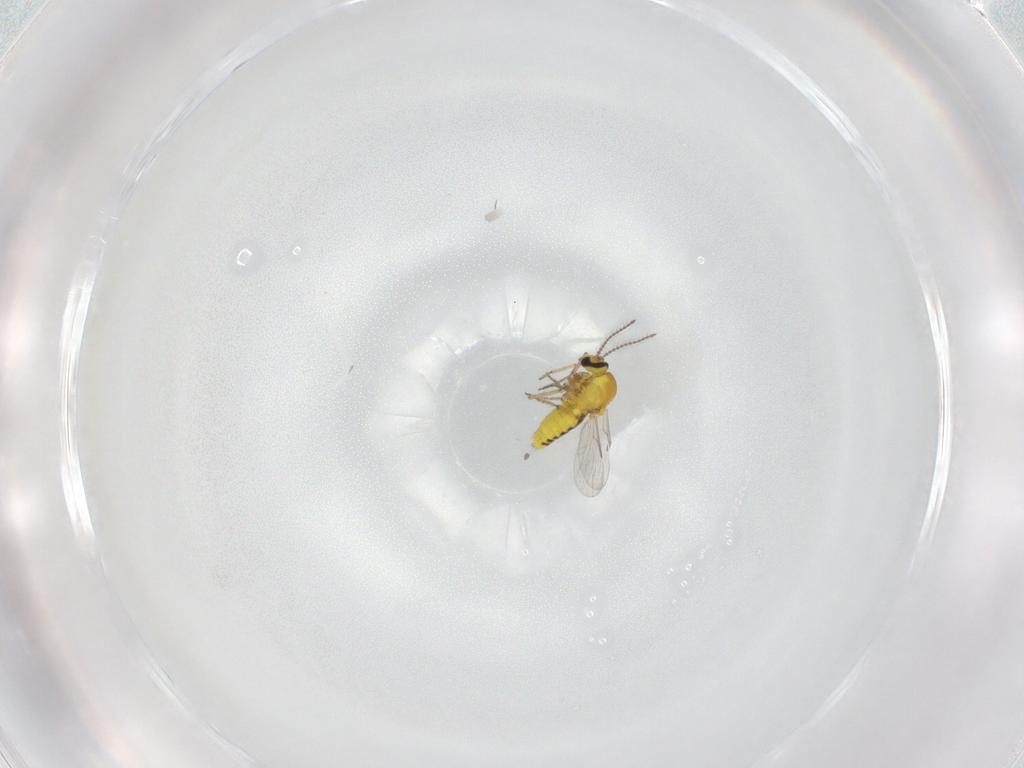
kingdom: Animalia
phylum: Arthropoda
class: Insecta
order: Diptera
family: Ceratopogonidae
